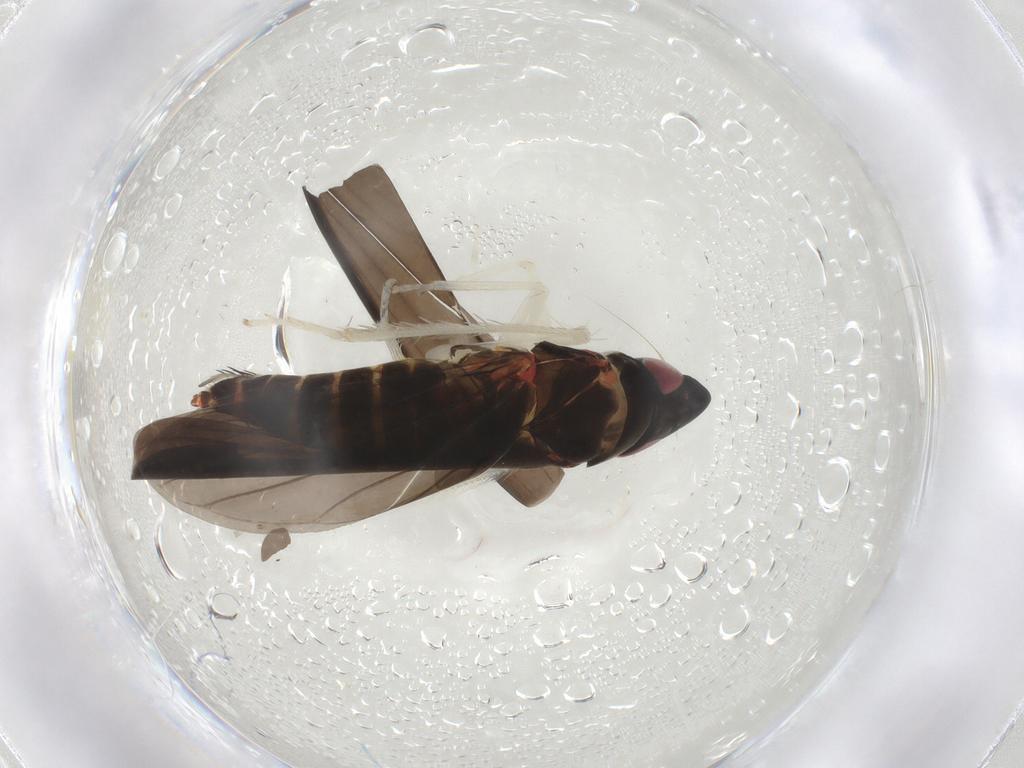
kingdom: Animalia
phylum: Arthropoda
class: Insecta
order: Hemiptera
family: Cicadellidae
